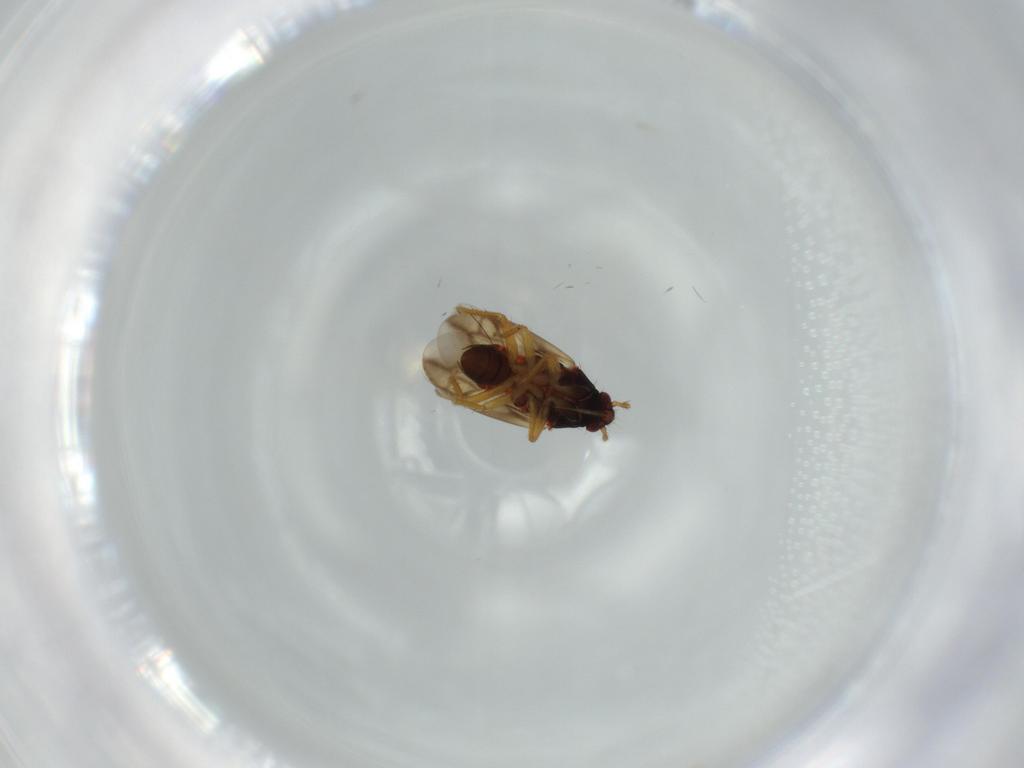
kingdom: Animalia
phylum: Arthropoda
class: Insecta
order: Hemiptera
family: Ceratocombidae
